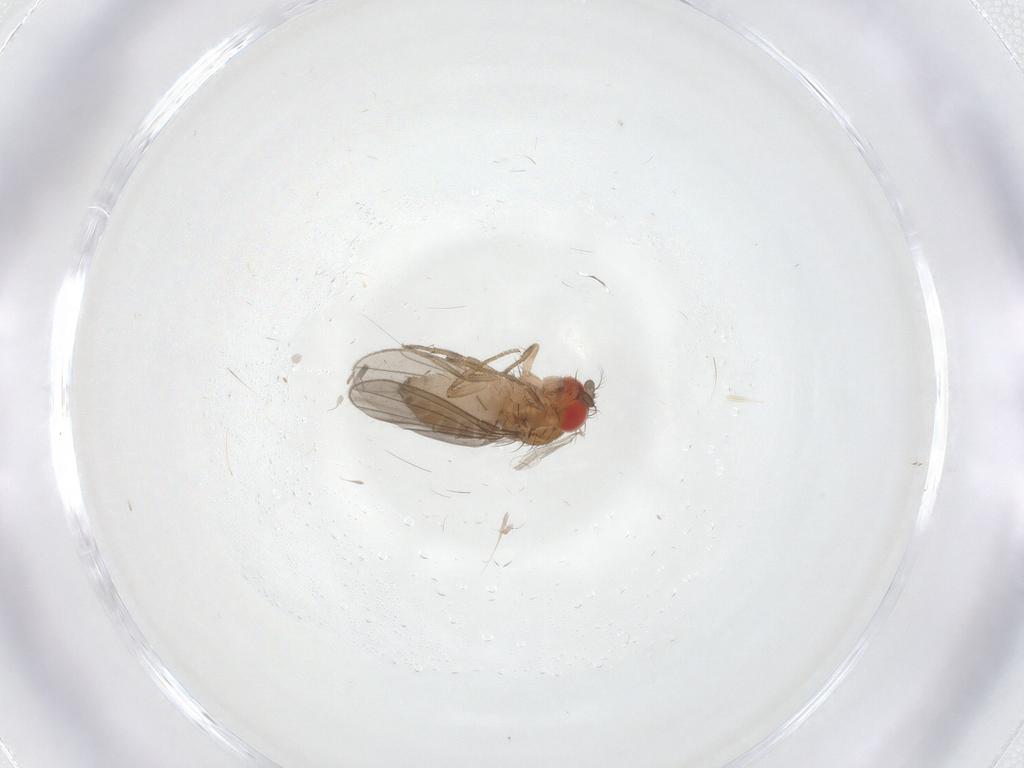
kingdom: Animalia
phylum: Arthropoda
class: Insecta
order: Diptera
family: Drosophilidae
